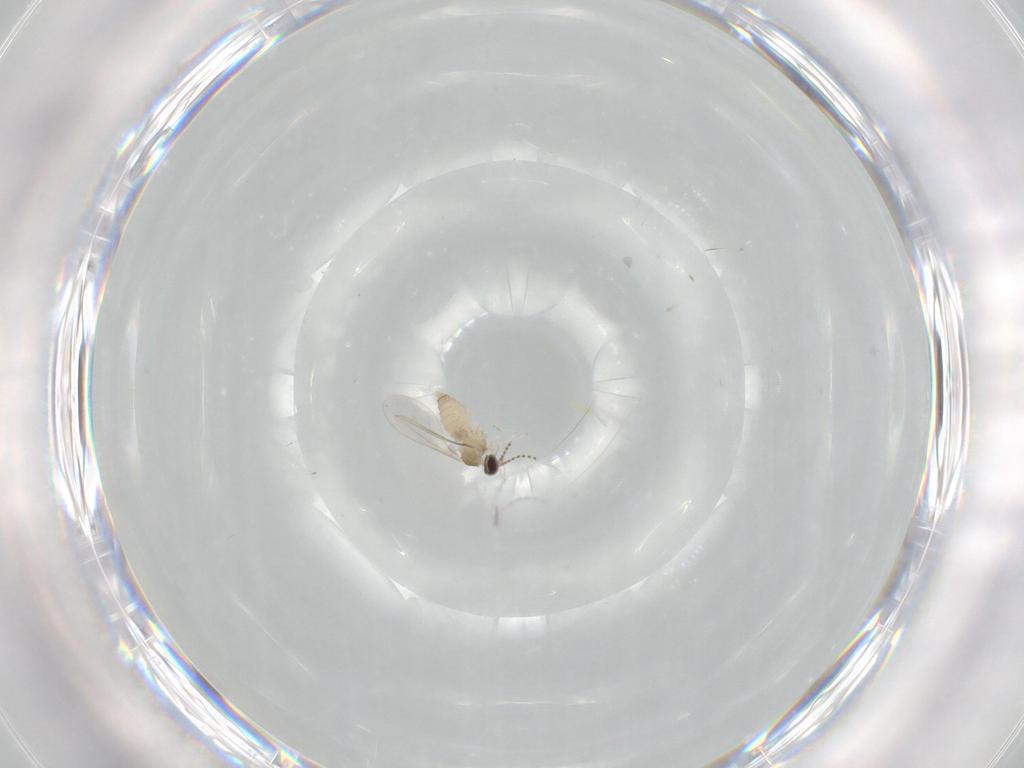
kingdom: Animalia
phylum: Arthropoda
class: Insecta
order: Diptera
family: Cecidomyiidae
